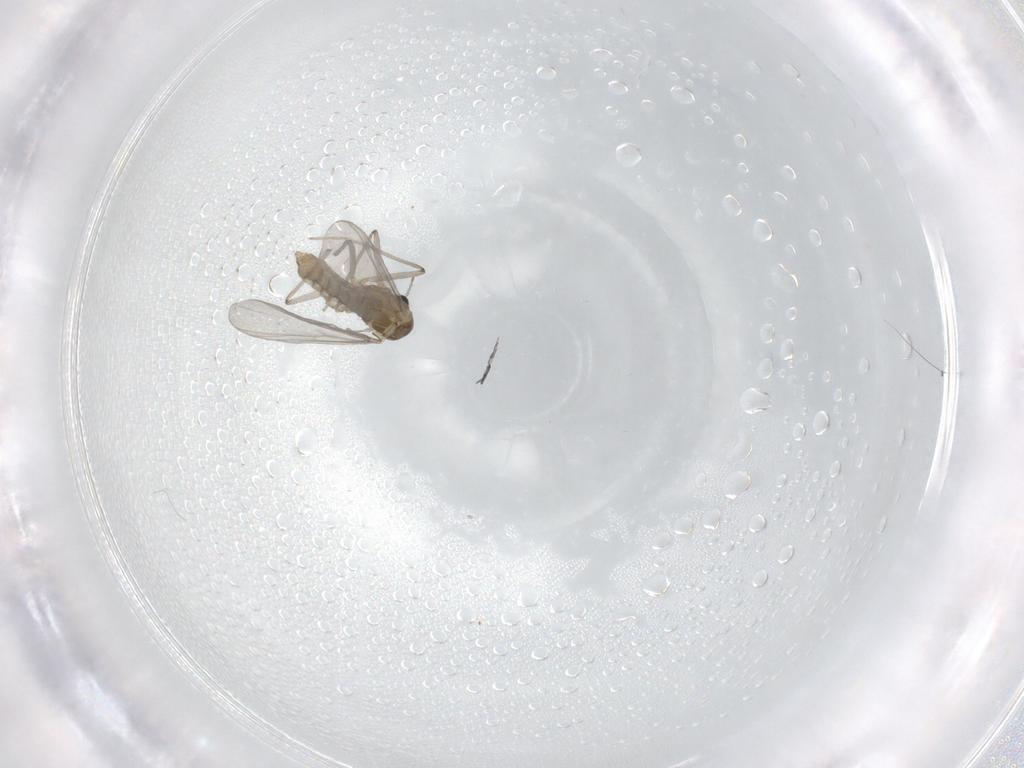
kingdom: Animalia
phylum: Arthropoda
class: Insecta
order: Diptera
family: Chironomidae
